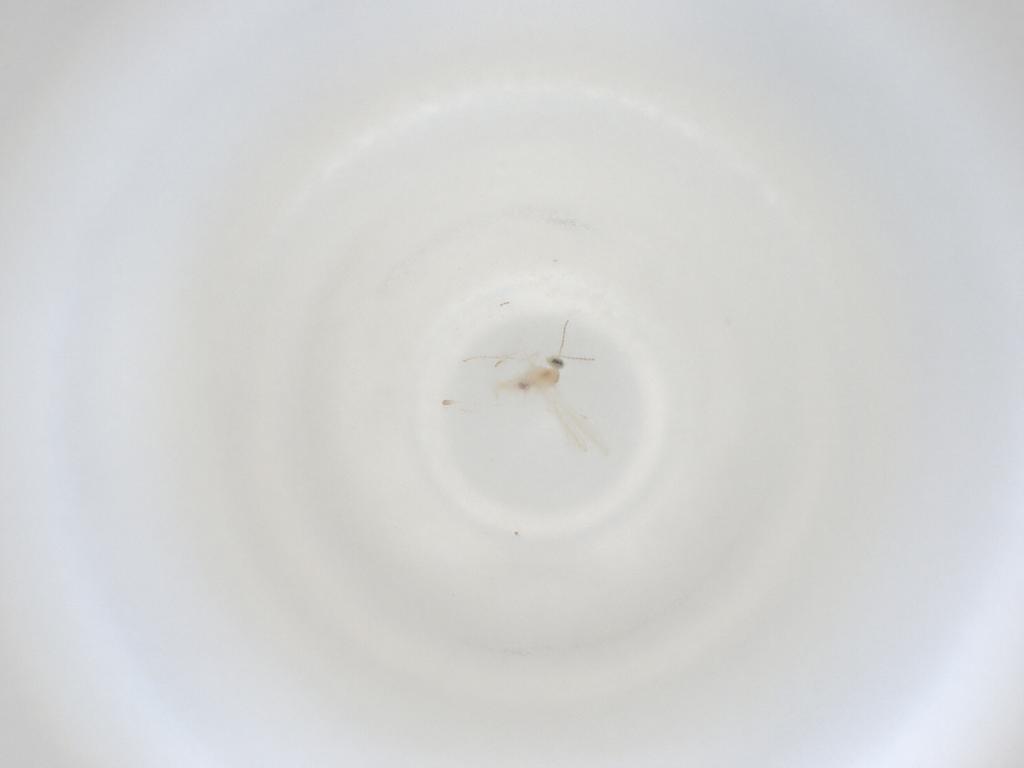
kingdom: Animalia
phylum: Arthropoda
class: Insecta
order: Diptera
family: Cecidomyiidae
